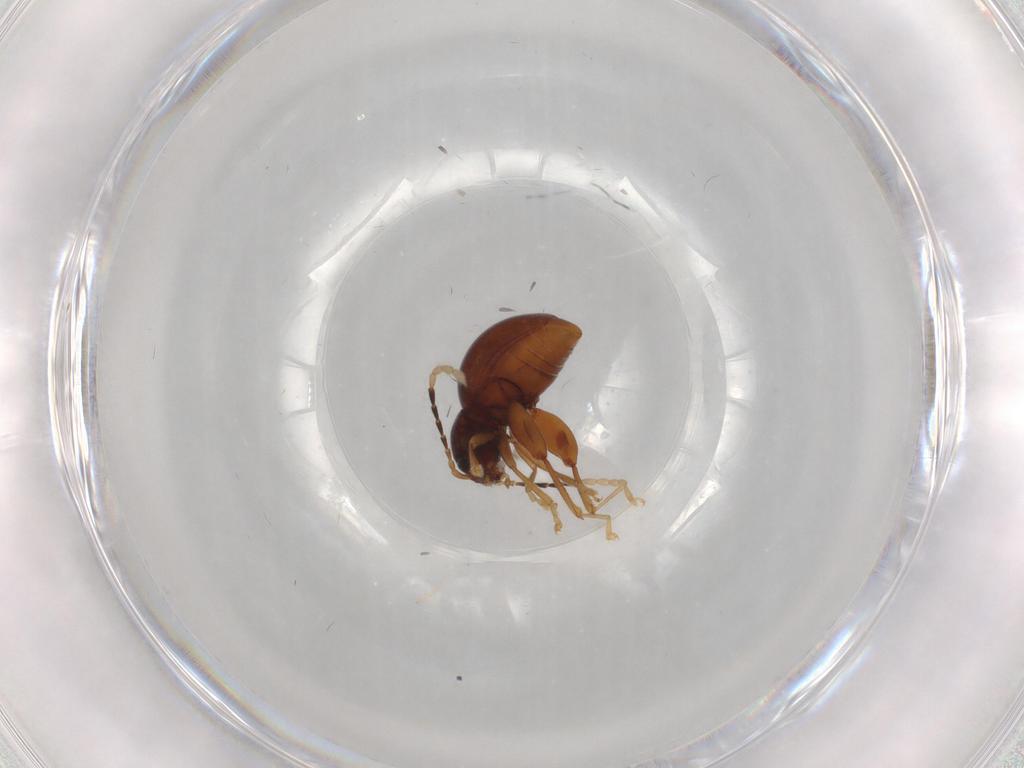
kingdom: Animalia
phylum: Arthropoda
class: Insecta
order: Coleoptera
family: Chrysomelidae
